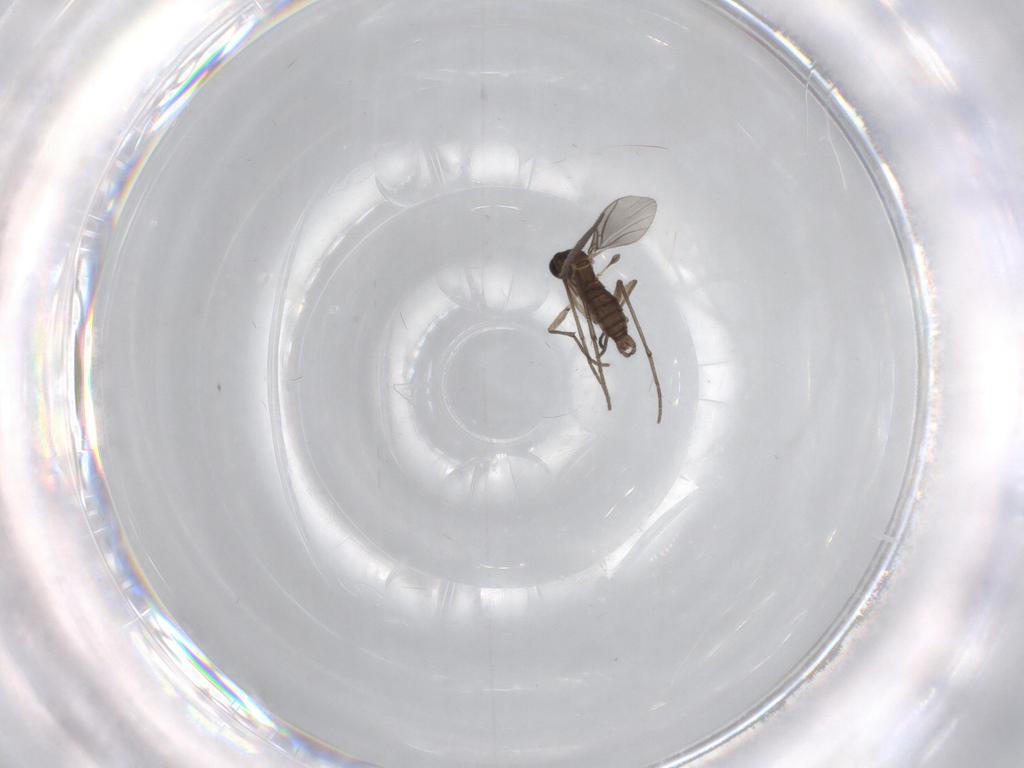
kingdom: Animalia
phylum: Arthropoda
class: Insecta
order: Diptera
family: Sciaridae
